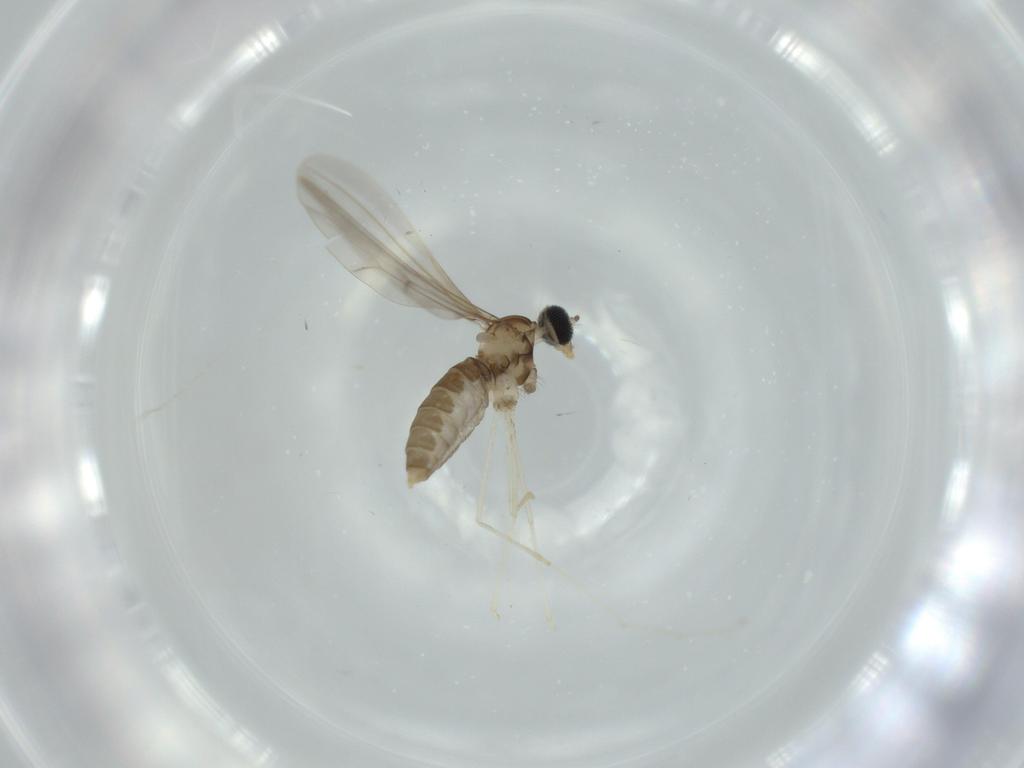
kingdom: Animalia
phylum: Arthropoda
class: Insecta
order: Diptera
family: Cecidomyiidae
